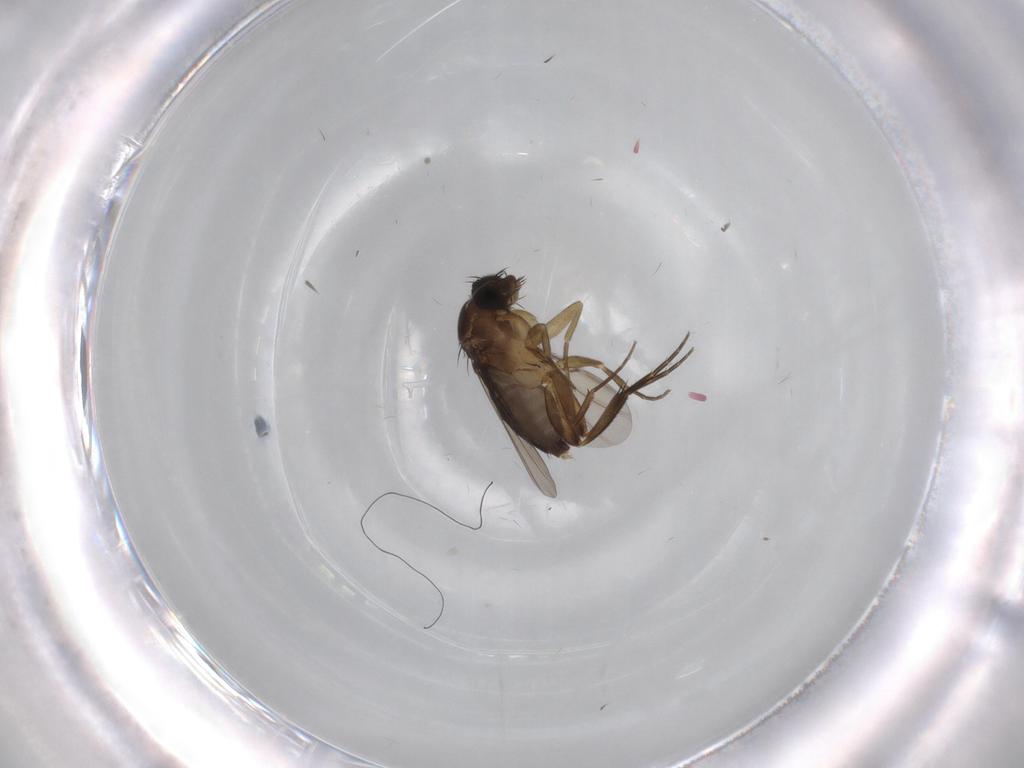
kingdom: Animalia
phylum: Arthropoda
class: Insecta
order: Diptera
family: Phoridae
